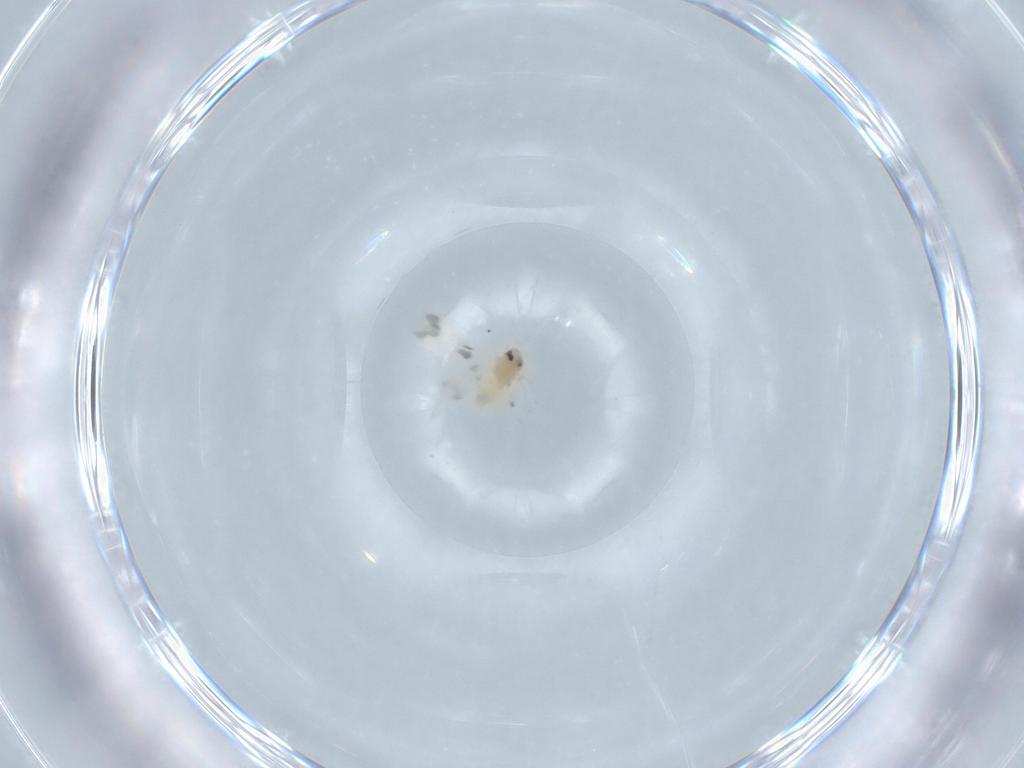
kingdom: Animalia
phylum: Arthropoda
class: Insecta
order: Hemiptera
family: Aleyrodidae
